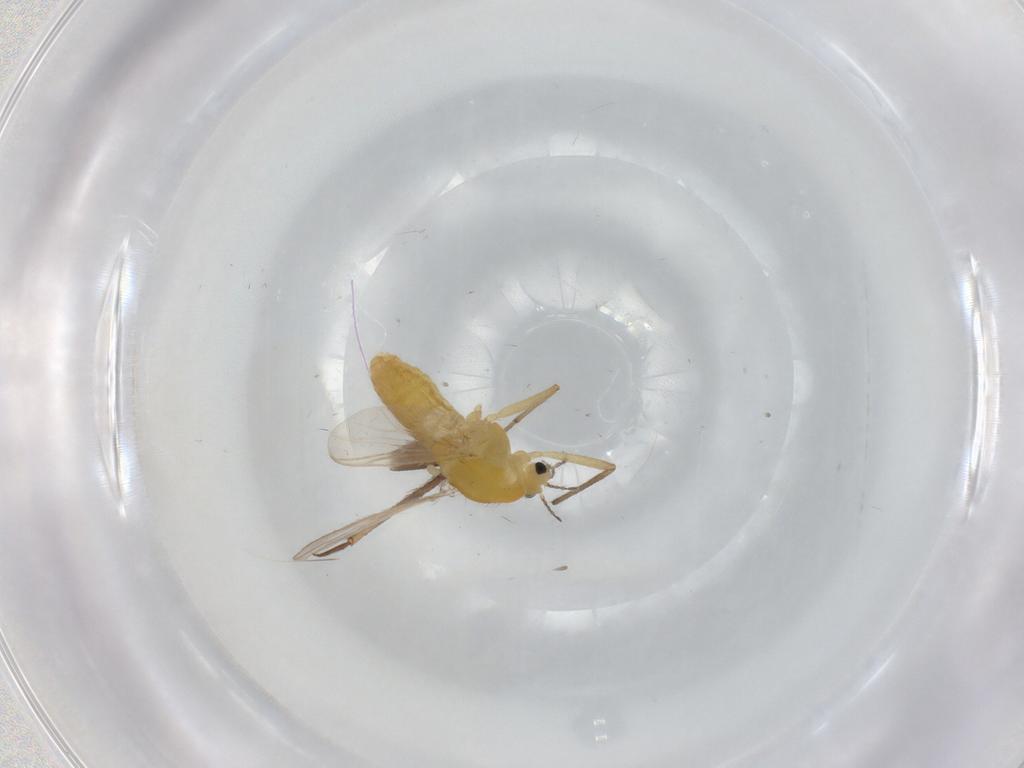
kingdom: Animalia
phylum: Arthropoda
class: Insecta
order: Diptera
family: Chironomidae
